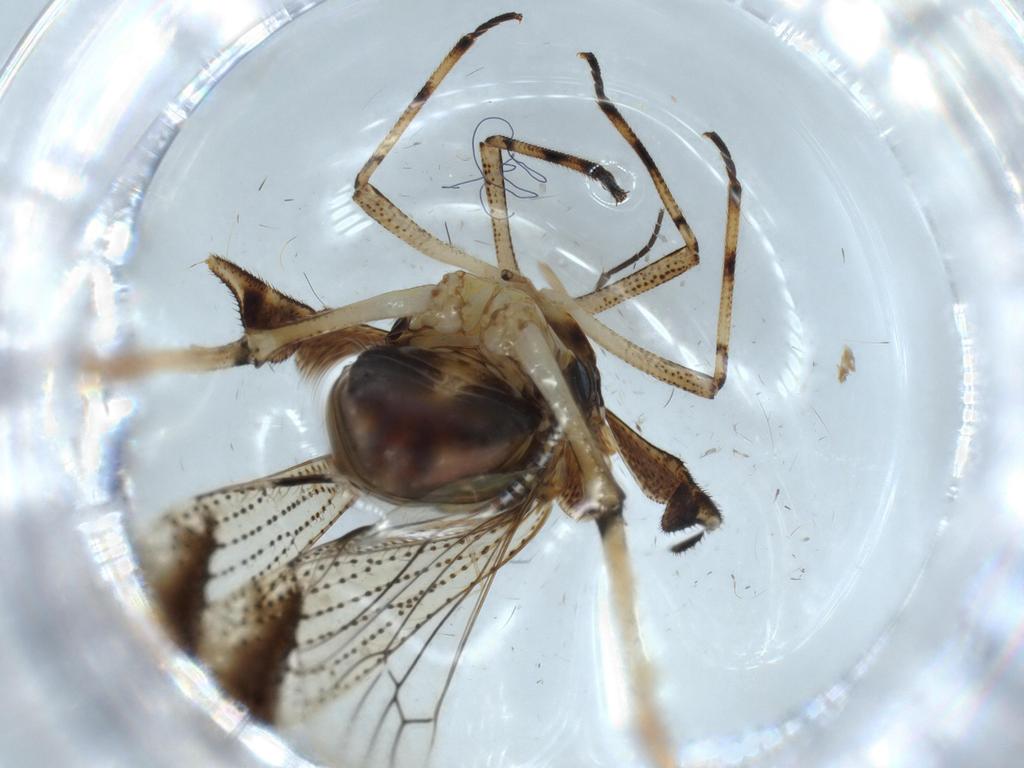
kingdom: Animalia
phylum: Arthropoda
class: Insecta
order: Hemiptera
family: Delphacidae
